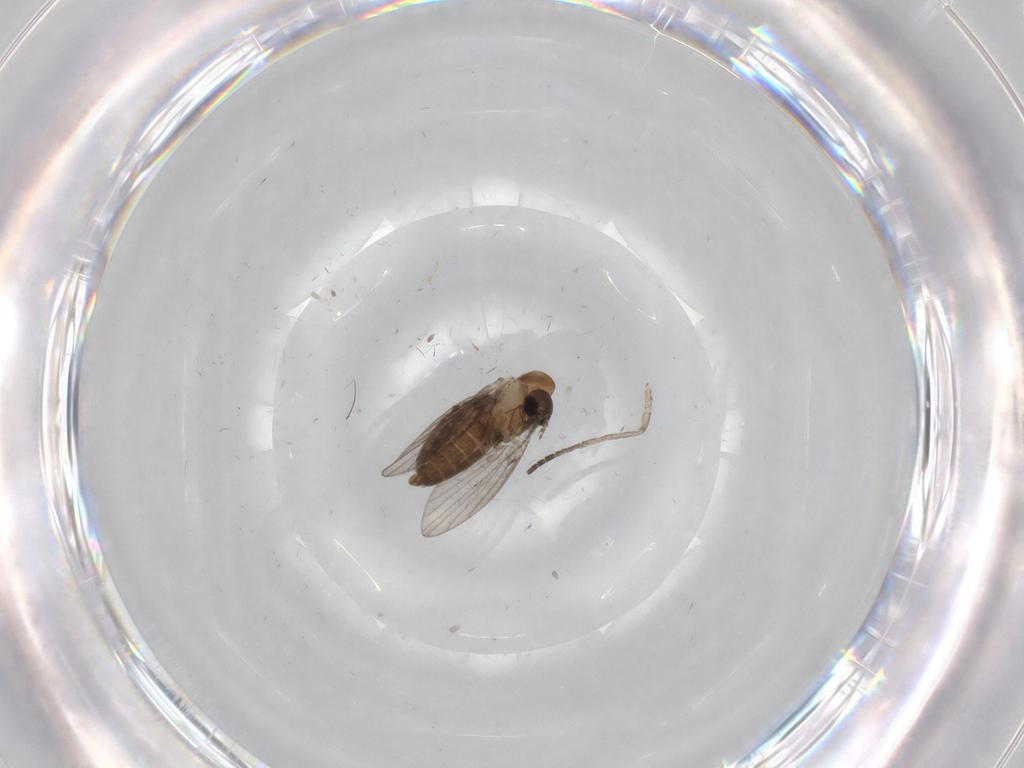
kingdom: Animalia
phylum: Arthropoda
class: Insecta
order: Diptera
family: Psychodidae
